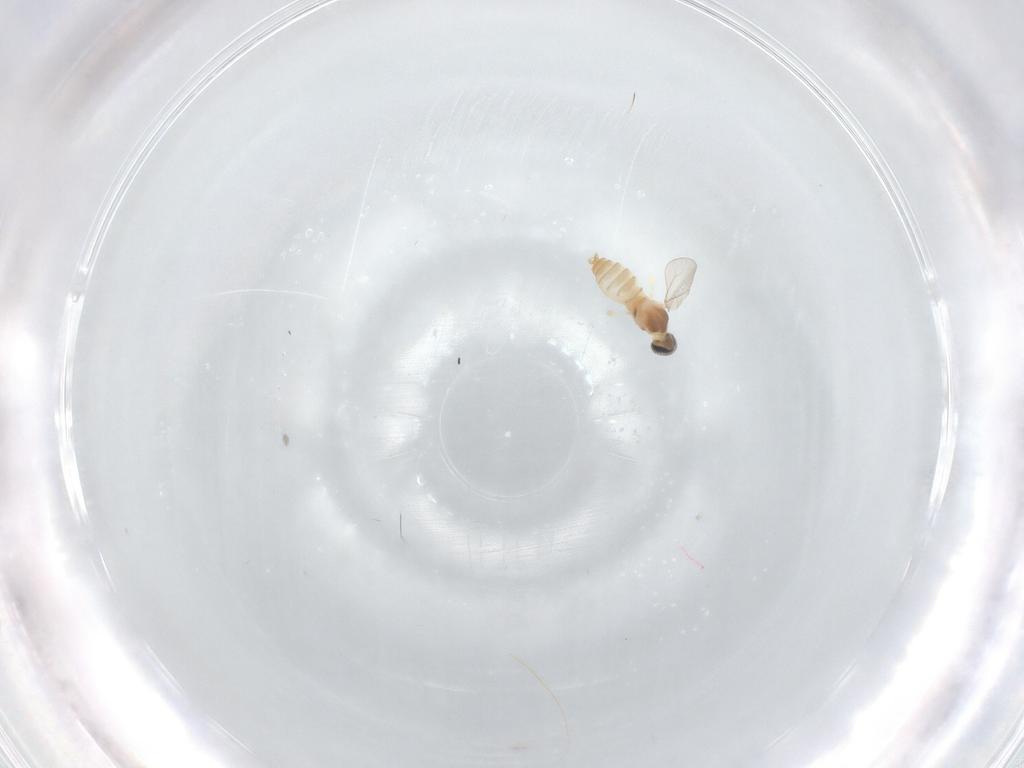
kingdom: Animalia
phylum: Arthropoda
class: Insecta
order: Diptera
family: Cecidomyiidae
